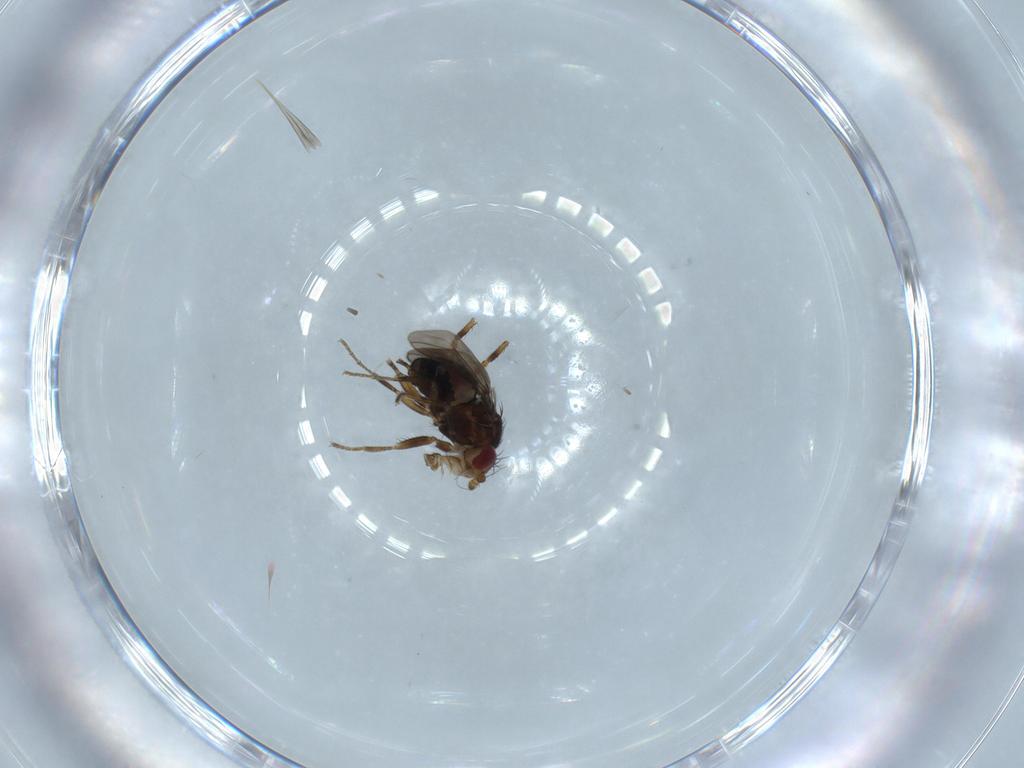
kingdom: Animalia
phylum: Arthropoda
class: Insecta
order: Diptera
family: Sphaeroceridae
